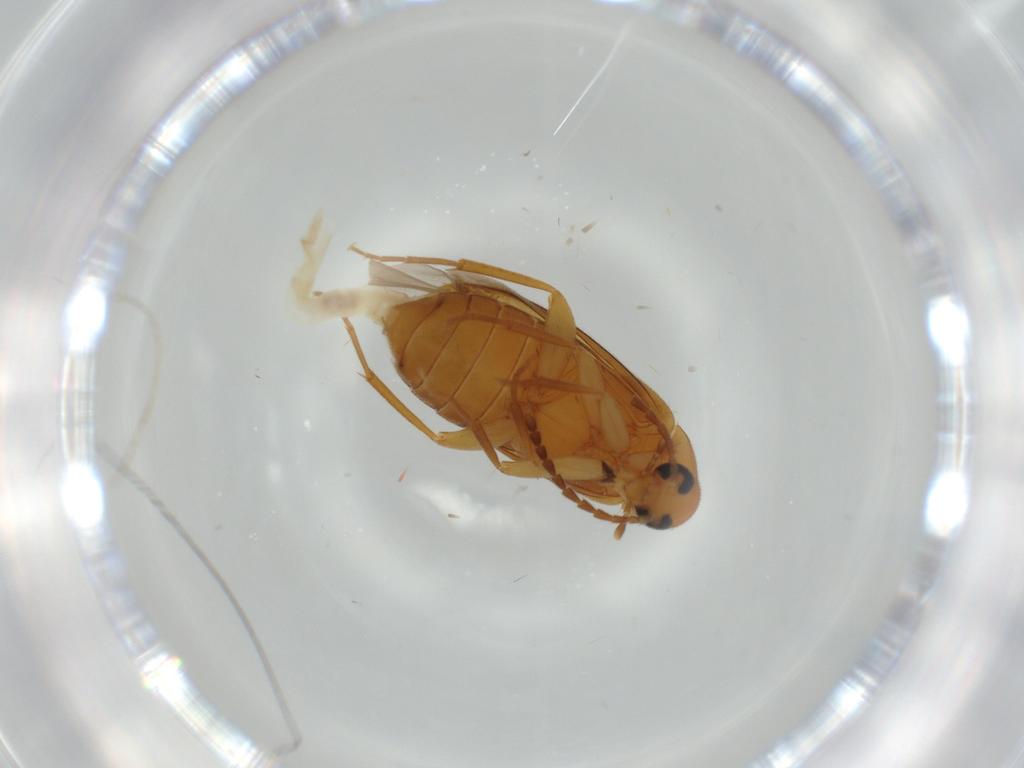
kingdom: Animalia
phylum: Arthropoda
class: Insecta
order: Coleoptera
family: Scraptiidae
